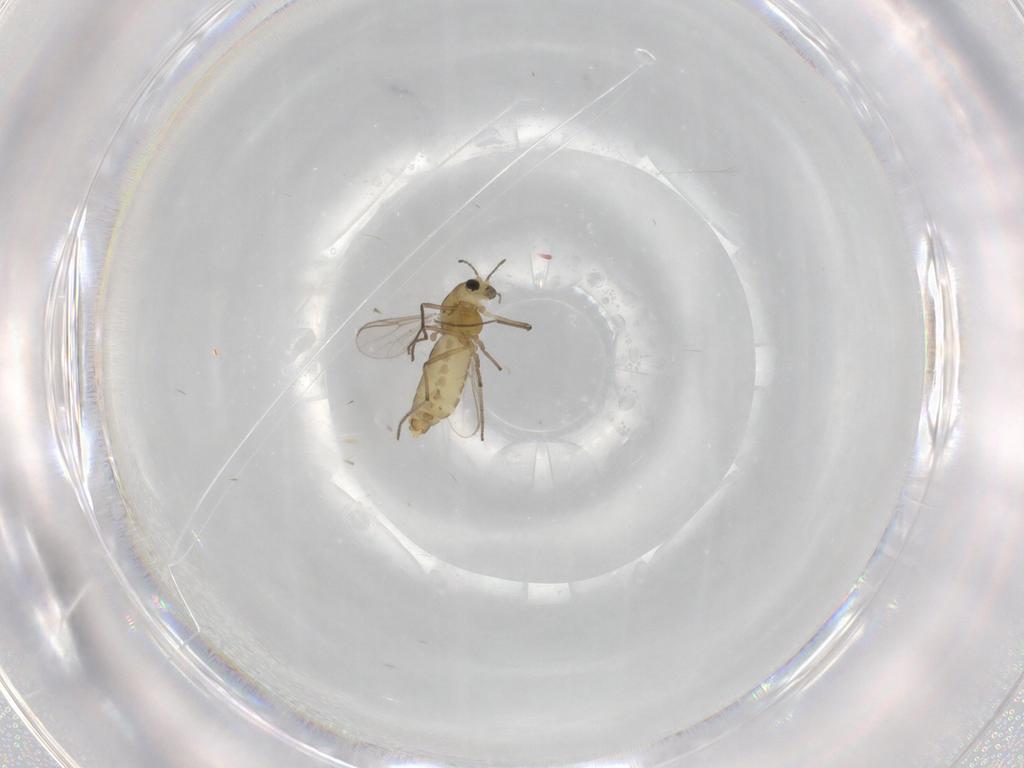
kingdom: Animalia
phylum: Arthropoda
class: Insecta
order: Diptera
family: Chironomidae
